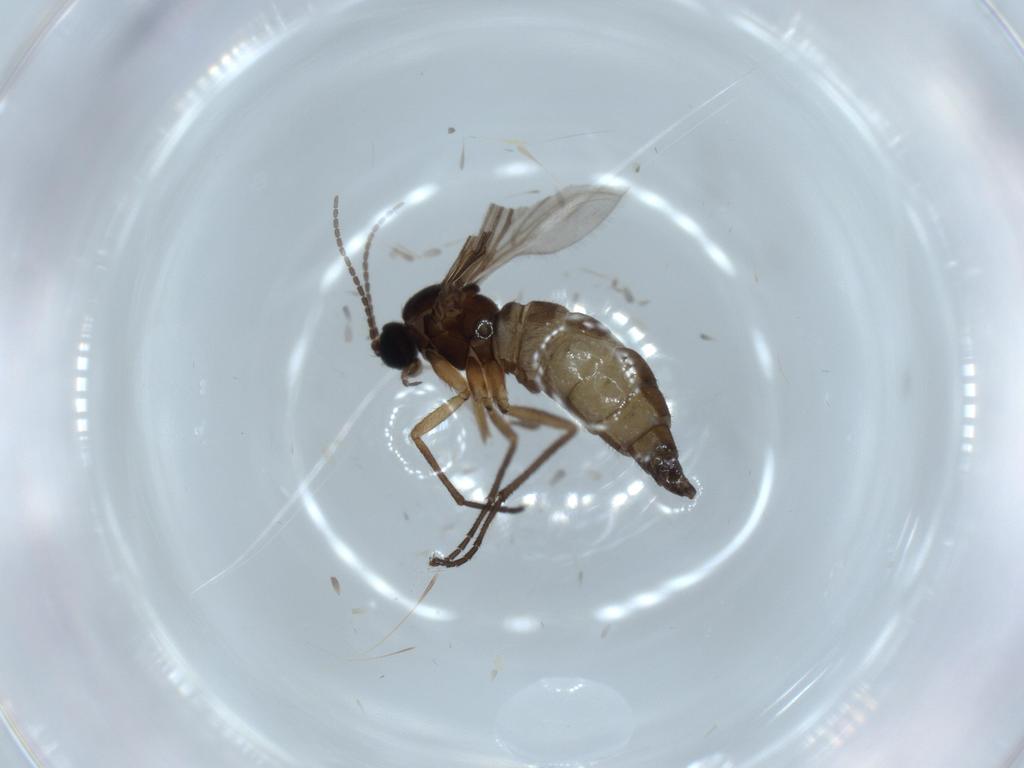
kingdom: Animalia
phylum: Arthropoda
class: Insecta
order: Diptera
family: Sciaridae
